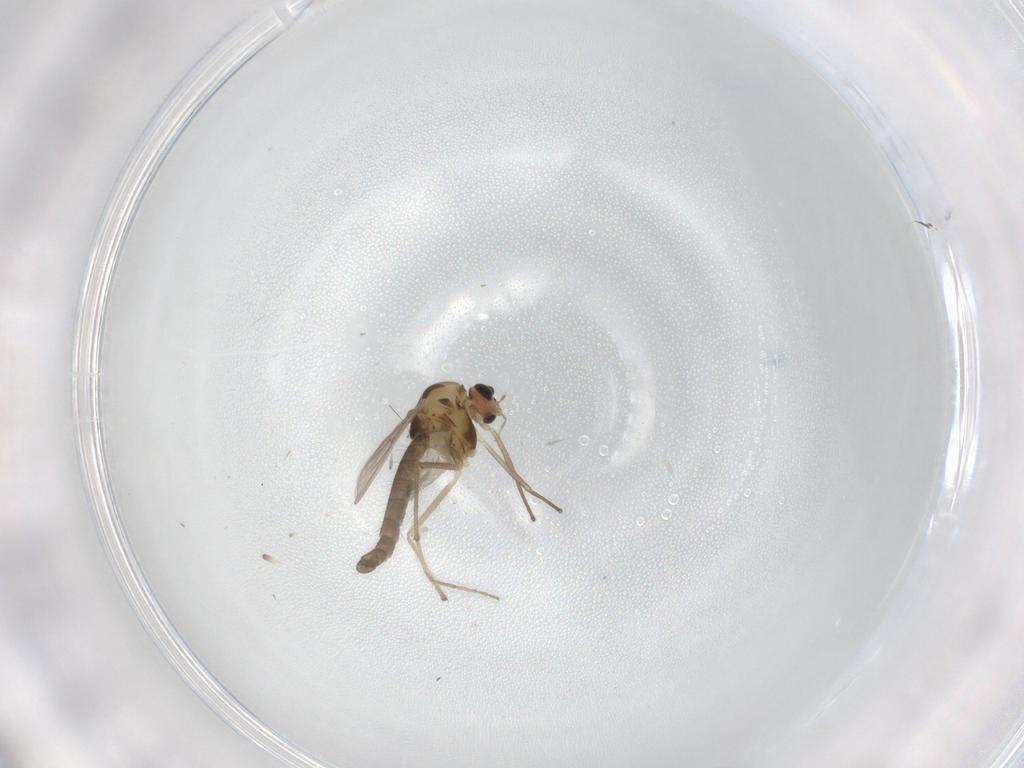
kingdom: Animalia
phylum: Arthropoda
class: Insecta
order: Diptera
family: Chironomidae
